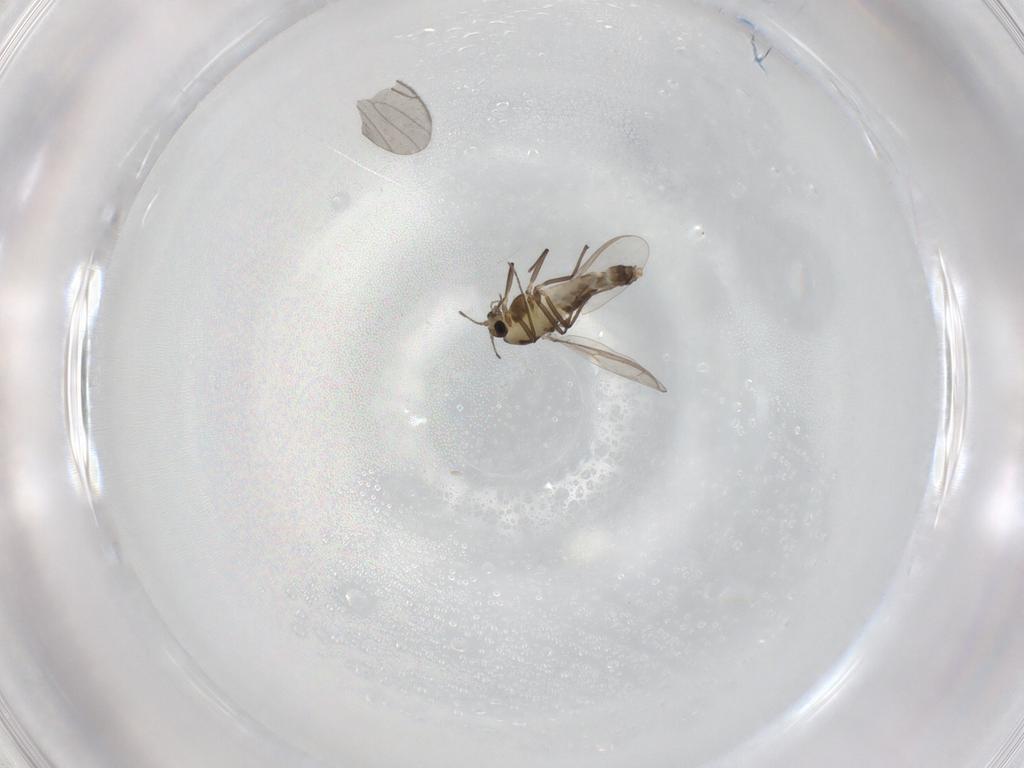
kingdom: Animalia
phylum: Arthropoda
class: Insecta
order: Diptera
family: Chironomidae
